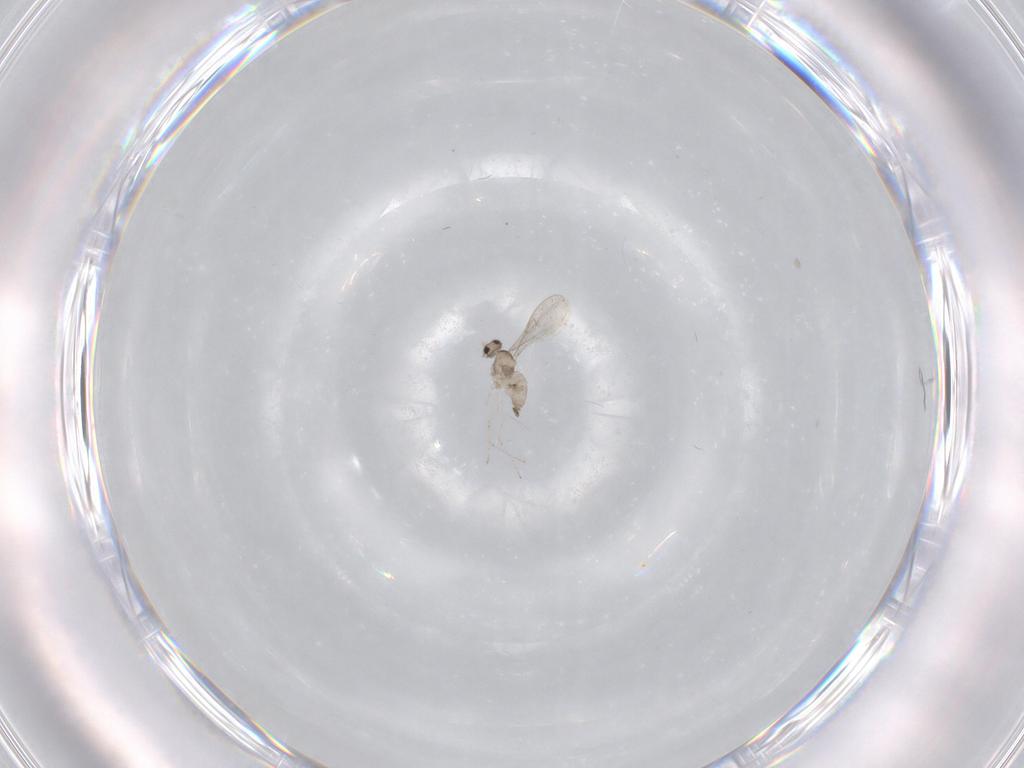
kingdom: Animalia
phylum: Arthropoda
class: Insecta
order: Diptera
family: Cecidomyiidae
